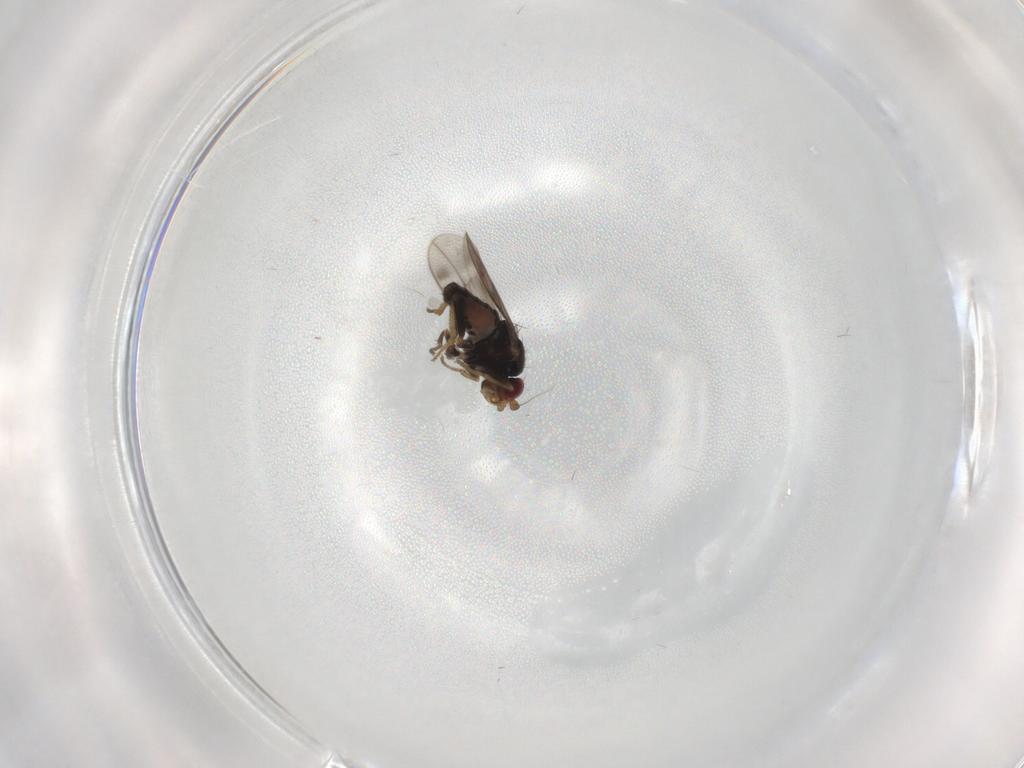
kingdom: Animalia
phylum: Arthropoda
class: Insecta
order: Diptera
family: Sphaeroceridae
